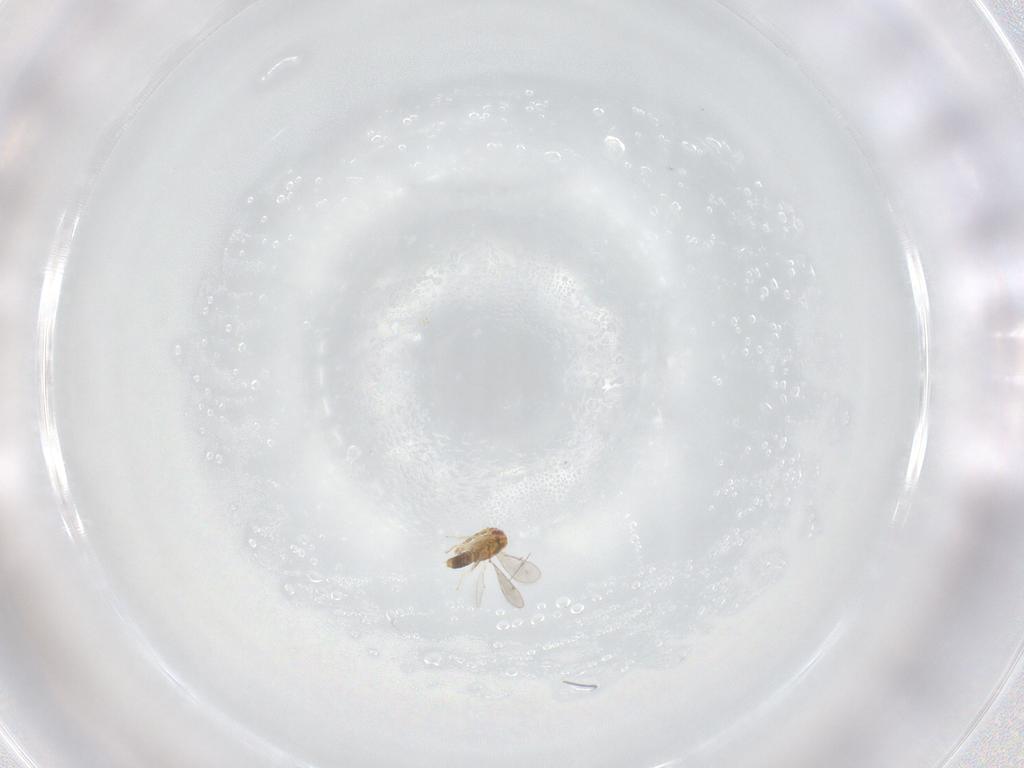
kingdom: Animalia
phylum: Arthropoda
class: Insecta
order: Hymenoptera
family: Aphelinidae
